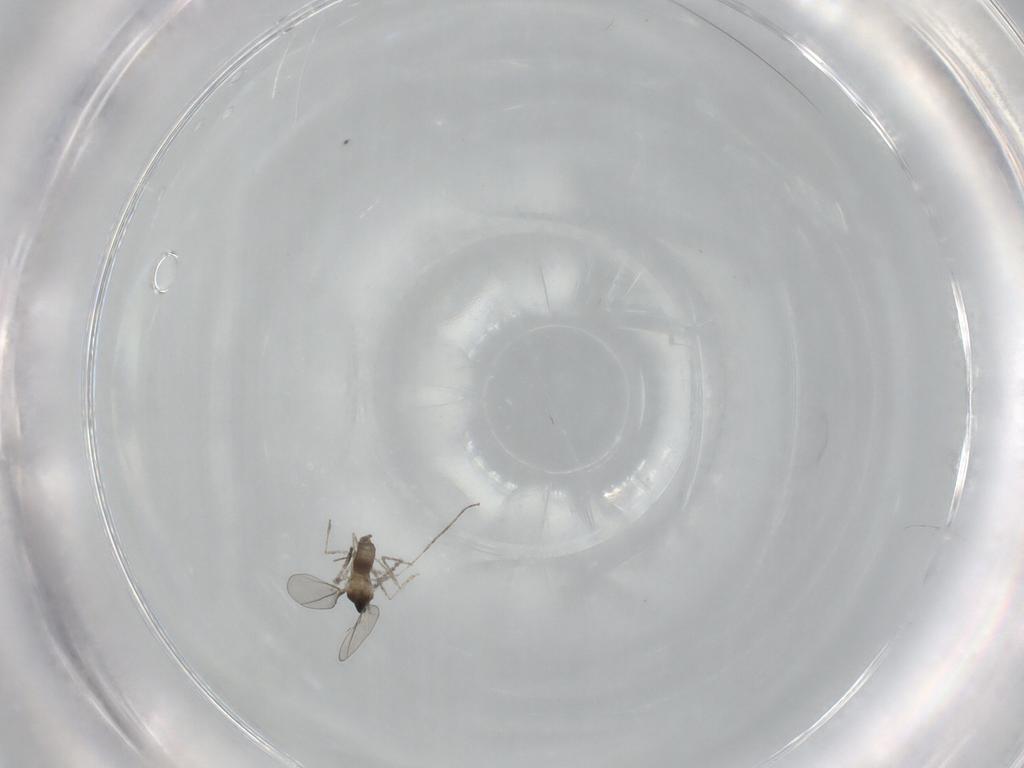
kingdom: Animalia
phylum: Arthropoda
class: Insecta
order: Diptera
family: Cecidomyiidae
